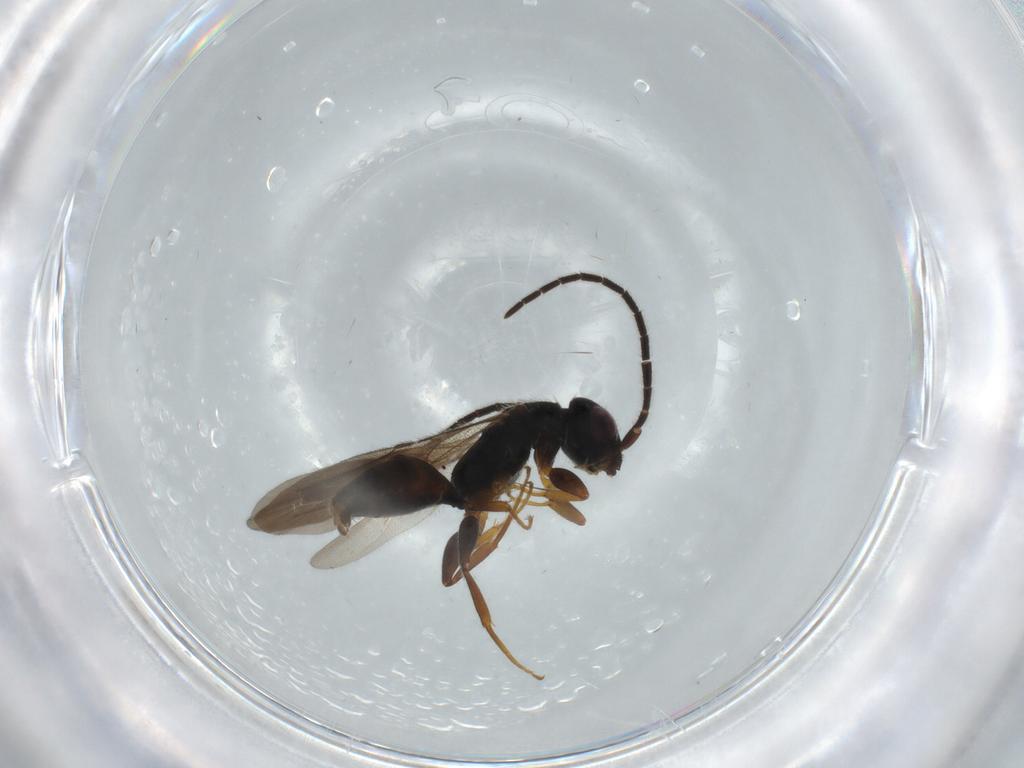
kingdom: Animalia
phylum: Arthropoda
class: Insecta
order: Hymenoptera
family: Bethylidae
